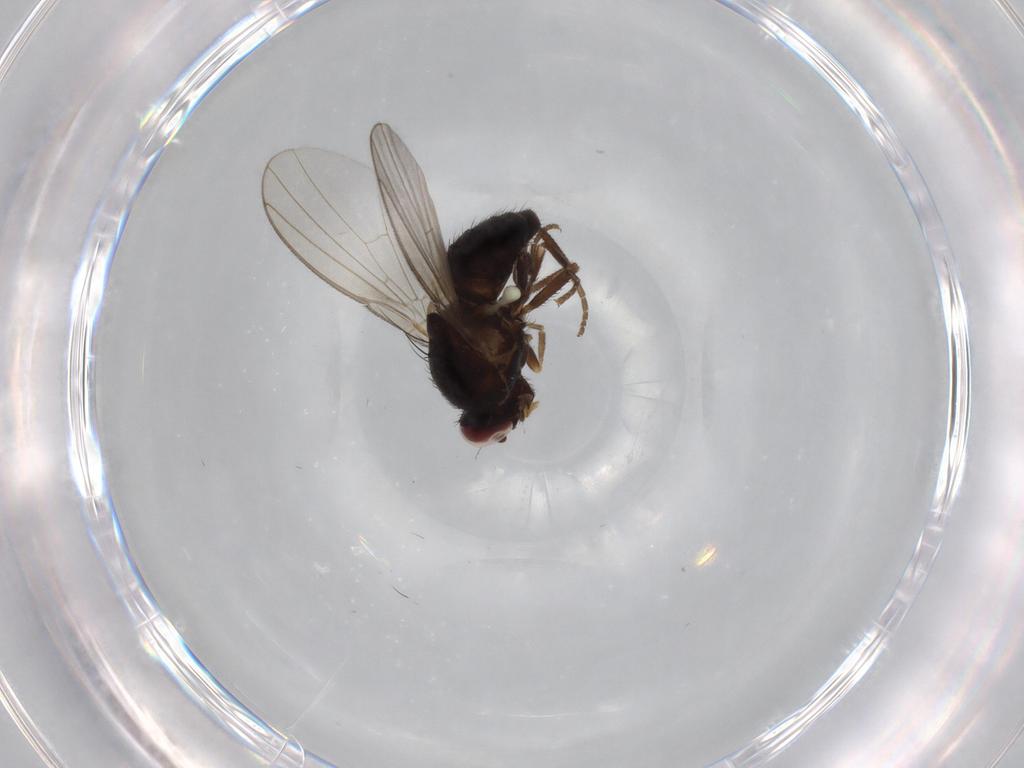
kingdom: Animalia
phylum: Arthropoda
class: Insecta
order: Diptera
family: Agromyzidae
